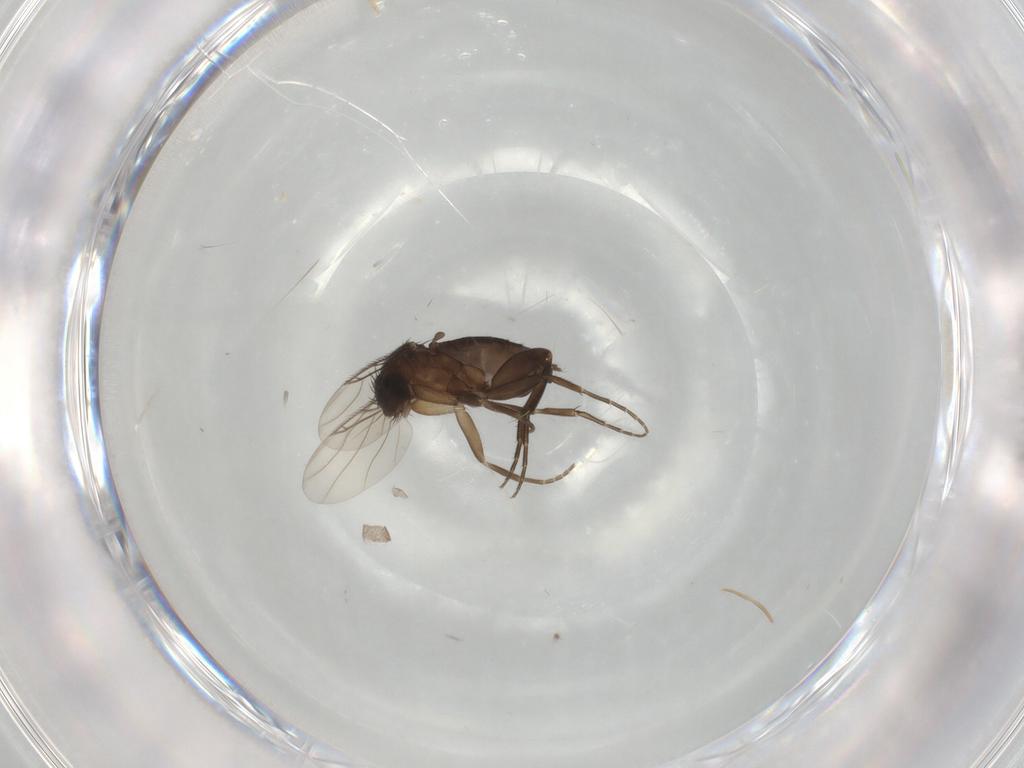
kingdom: Animalia
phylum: Arthropoda
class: Insecta
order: Diptera
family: Phoridae
